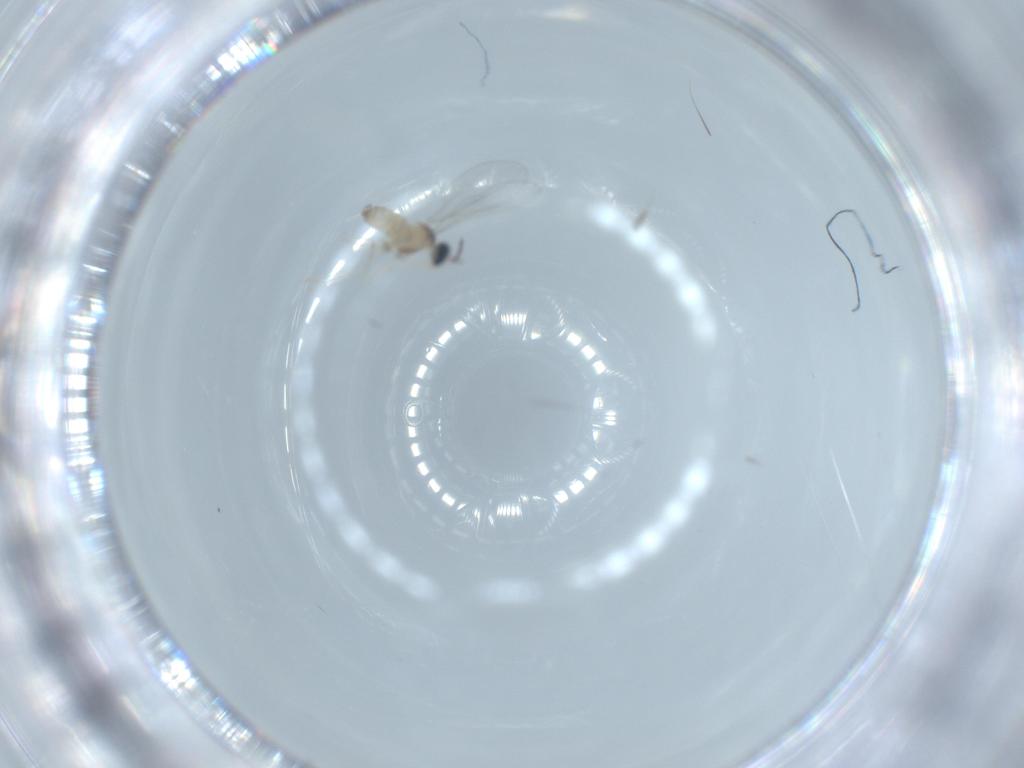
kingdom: Animalia
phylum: Arthropoda
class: Insecta
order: Diptera
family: Cecidomyiidae
